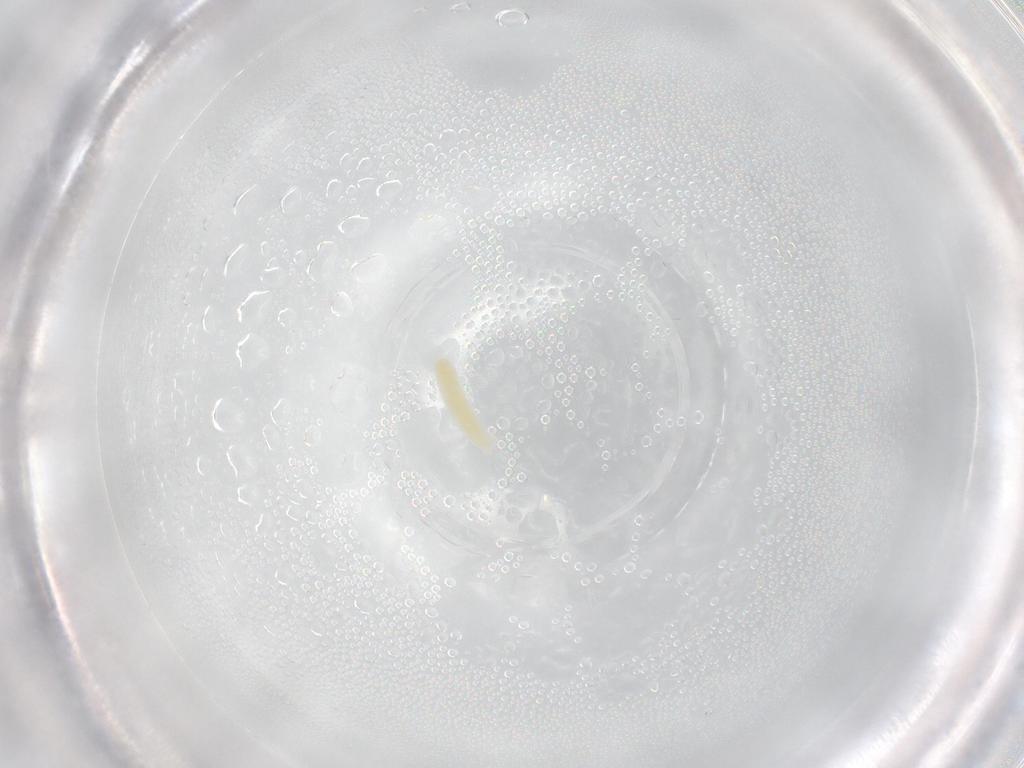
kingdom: Animalia
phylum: Arthropoda
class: Insecta
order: Diptera
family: Cecidomyiidae
